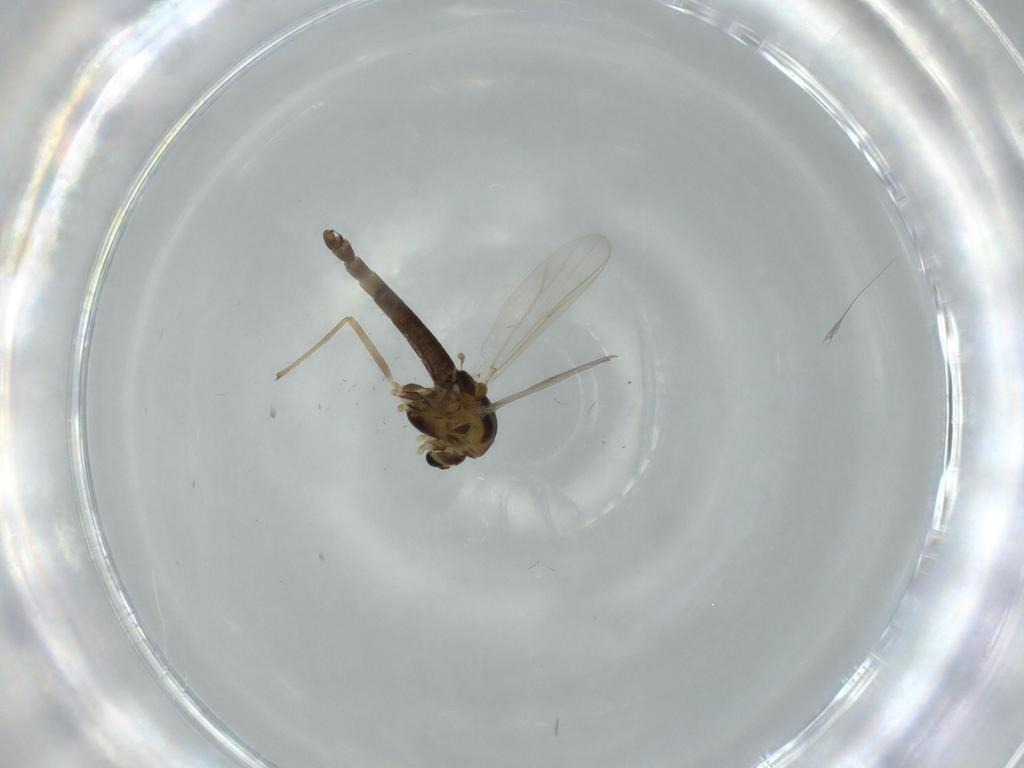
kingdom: Animalia
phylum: Arthropoda
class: Insecta
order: Diptera
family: Chironomidae
